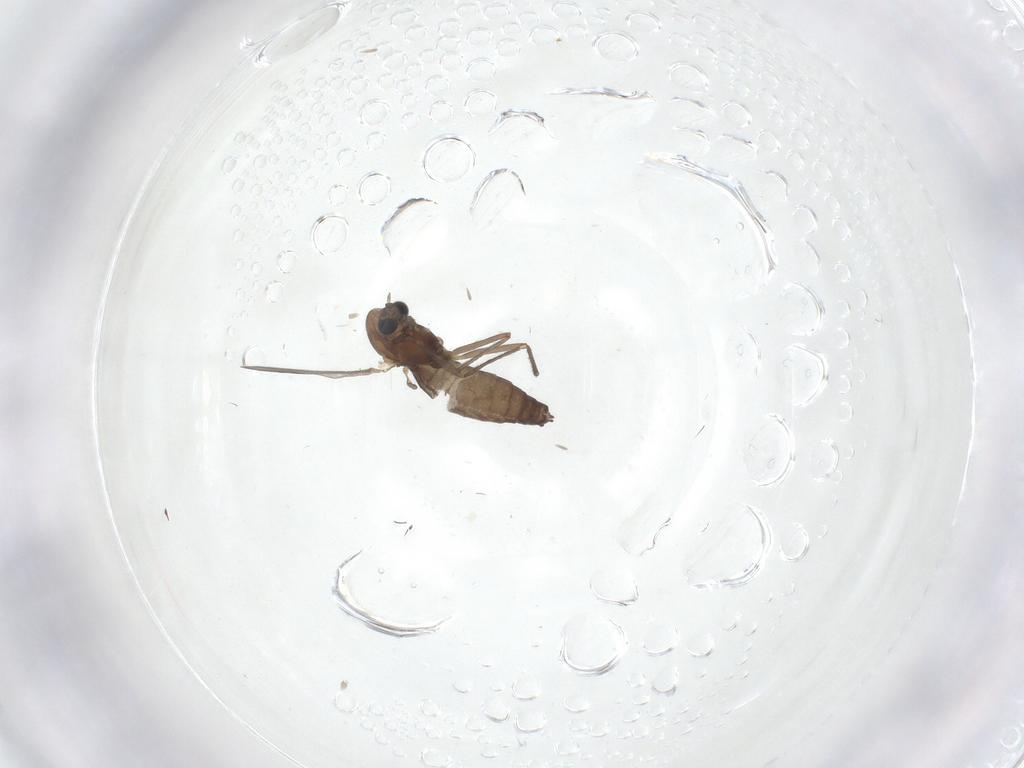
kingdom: Animalia
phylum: Arthropoda
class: Insecta
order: Diptera
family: Chironomidae
